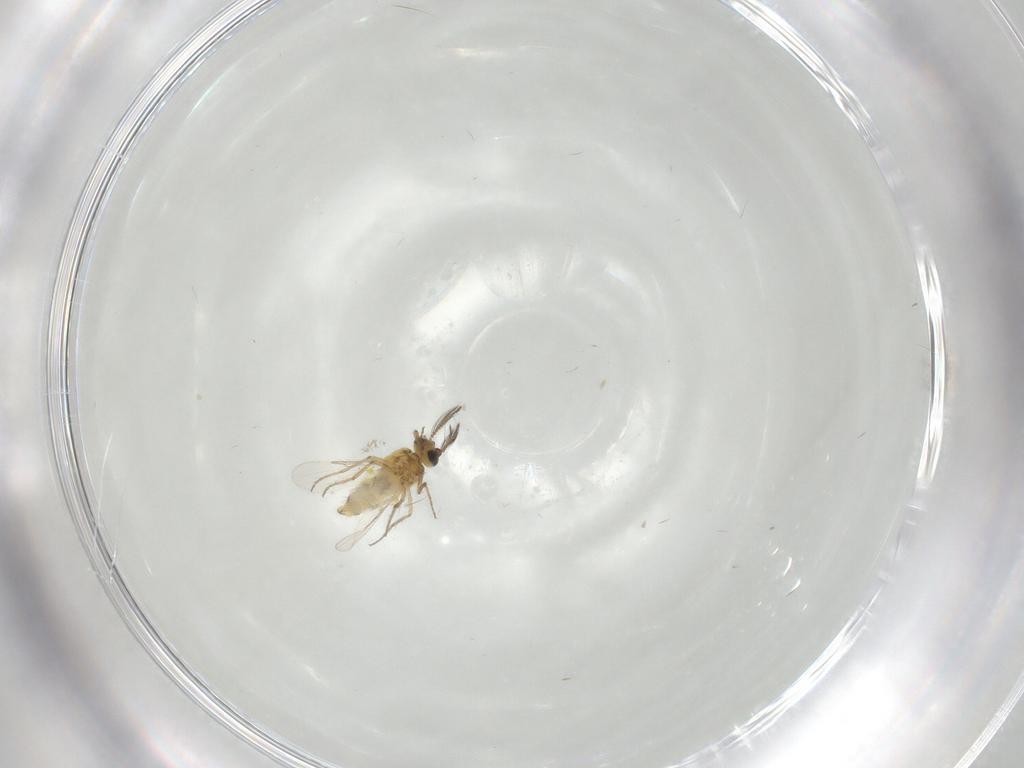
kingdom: Animalia
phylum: Arthropoda
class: Insecta
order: Diptera
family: Ceratopogonidae
